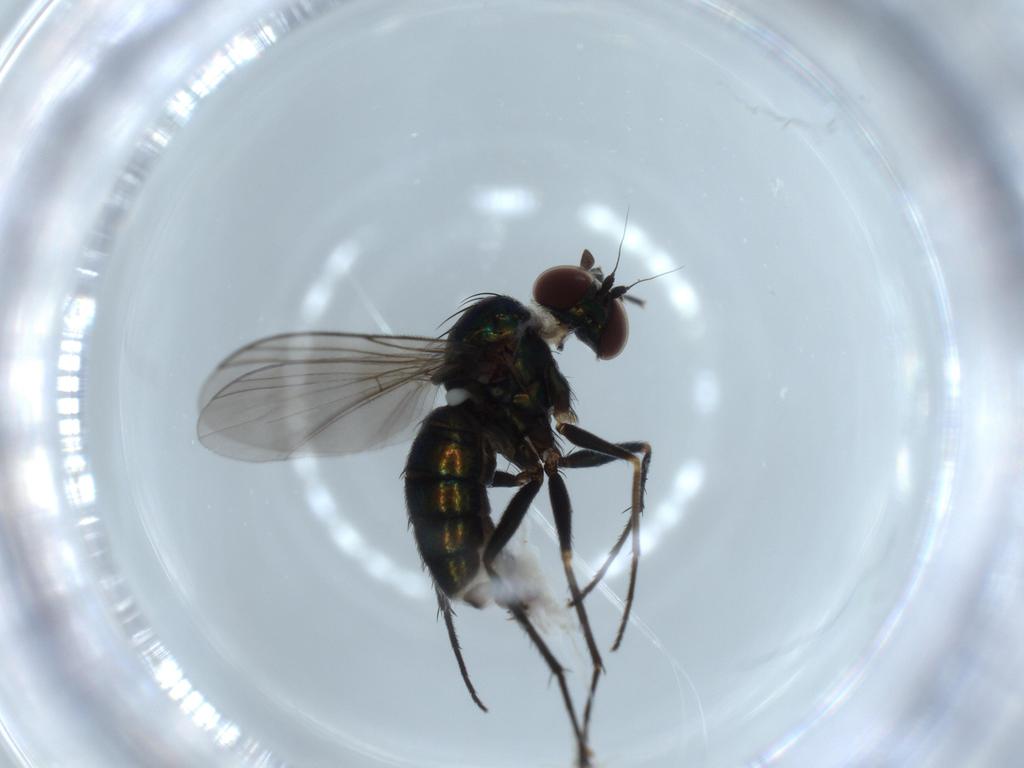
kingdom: Animalia
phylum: Arthropoda
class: Insecta
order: Diptera
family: Dolichopodidae
